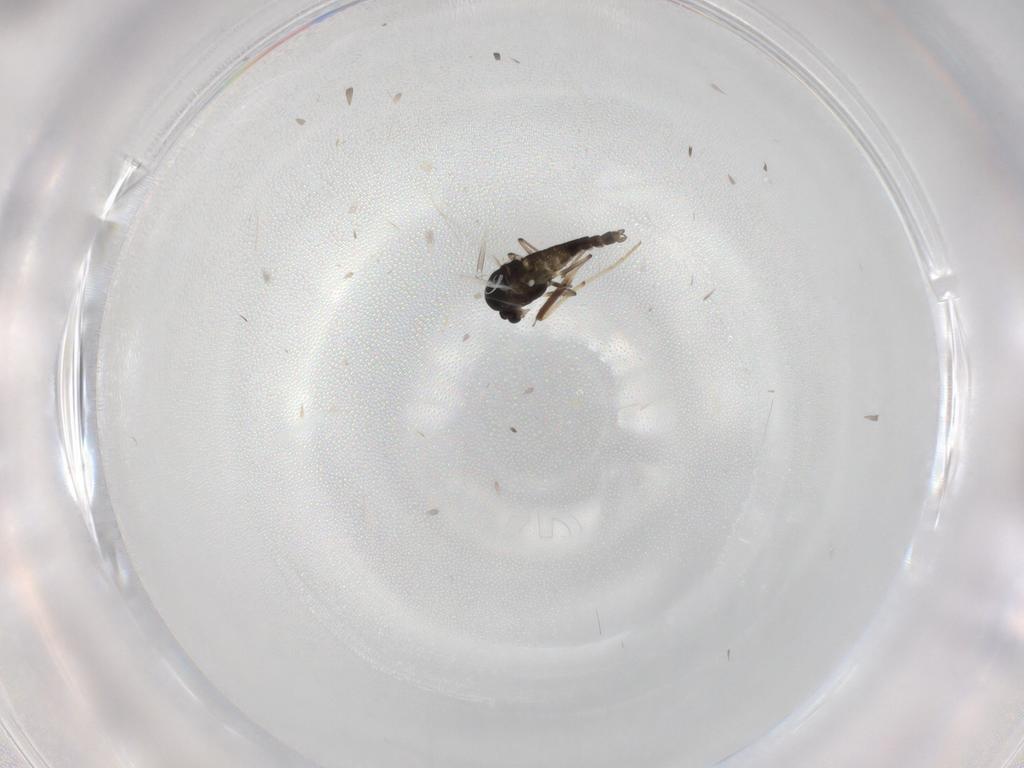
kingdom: Animalia
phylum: Arthropoda
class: Insecta
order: Diptera
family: Chironomidae
